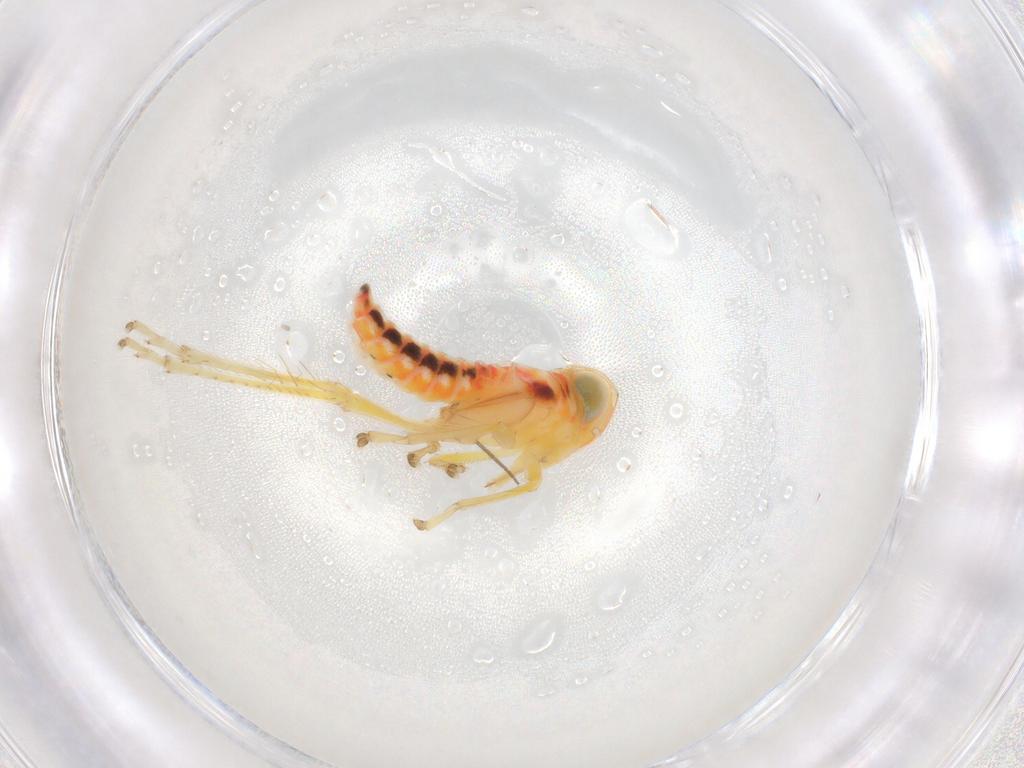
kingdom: Animalia
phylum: Arthropoda
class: Insecta
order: Hemiptera
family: Cicadellidae
